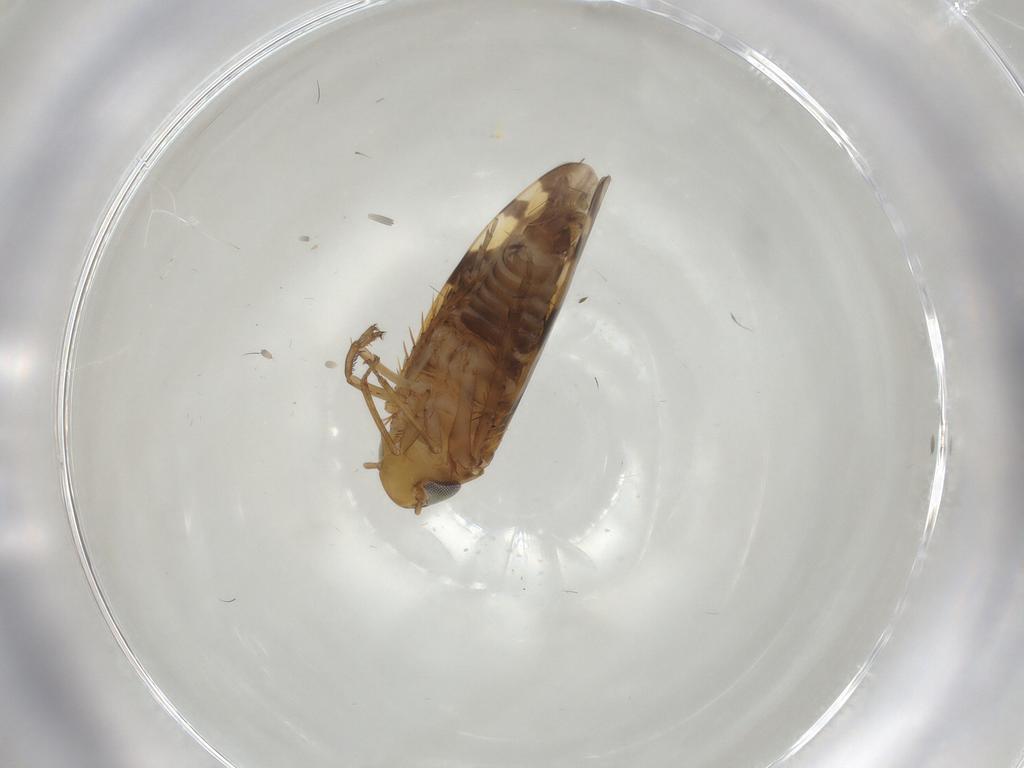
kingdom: Animalia
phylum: Arthropoda
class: Insecta
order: Hemiptera
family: Cicadellidae
